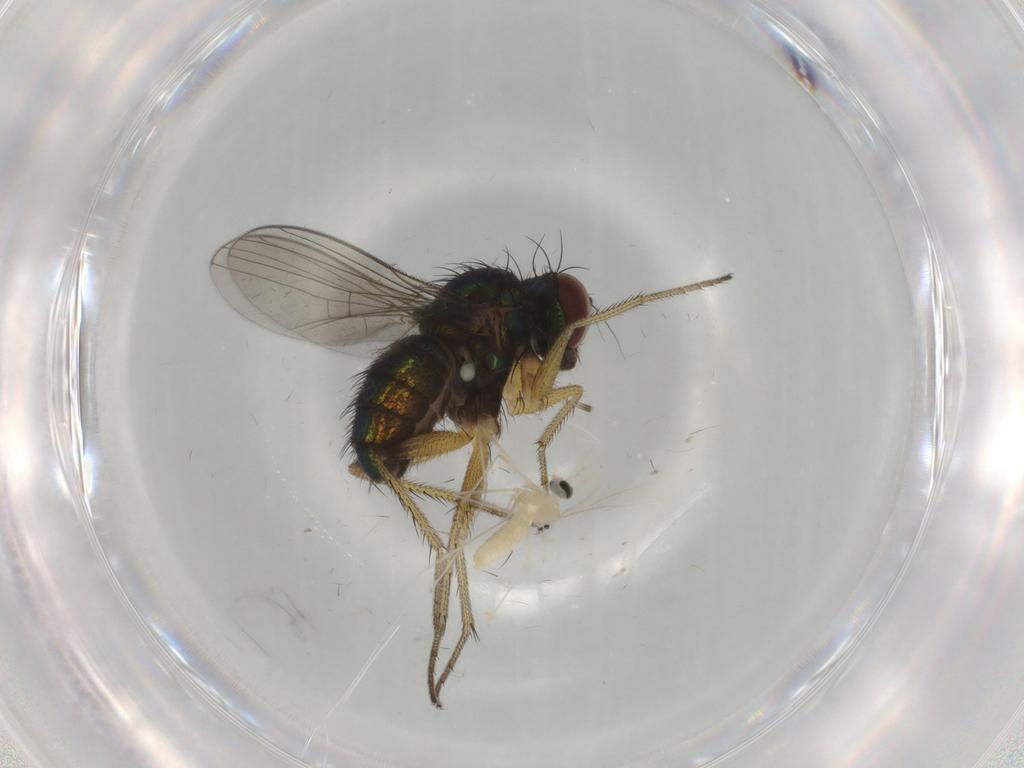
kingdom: Animalia
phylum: Arthropoda
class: Insecta
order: Diptera
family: Dolichopodidae
